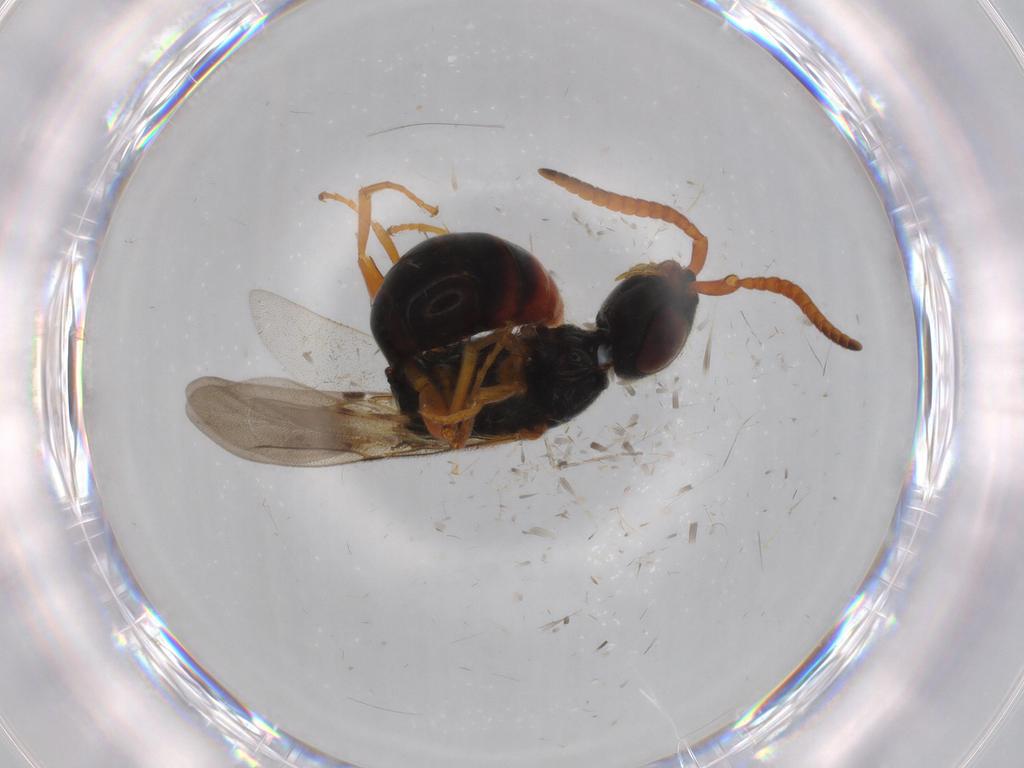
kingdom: Animalia
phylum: Arthropoda
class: Insecta
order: Hymenoptera
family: Bethylidae
